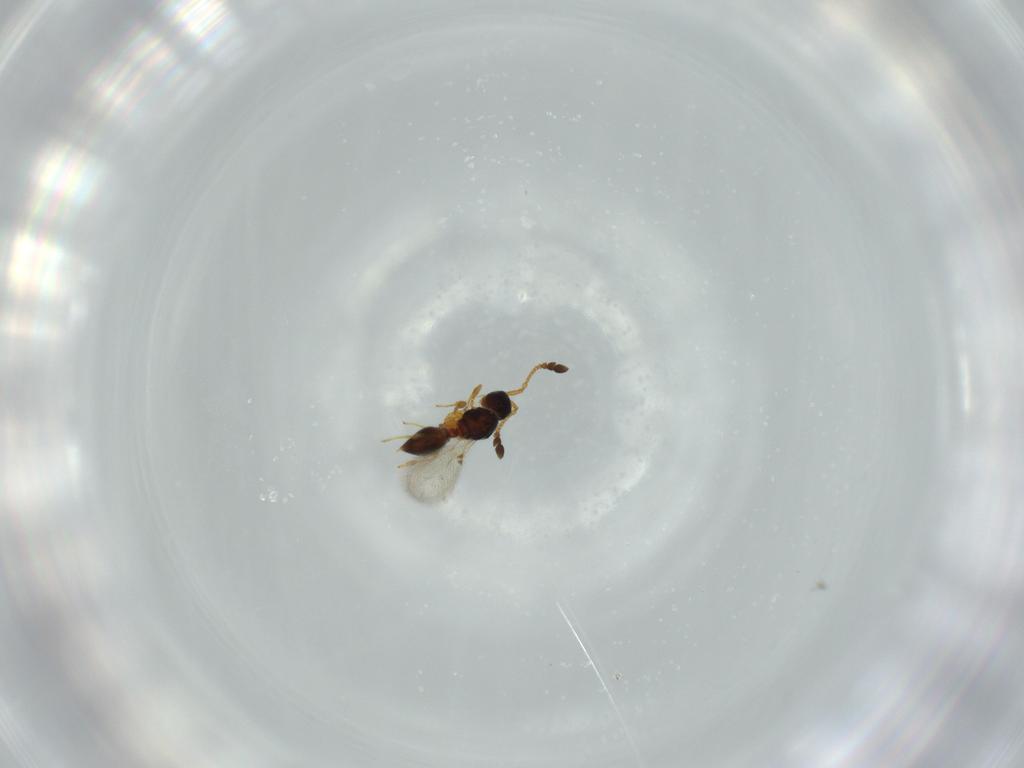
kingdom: Animalia
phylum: Arthropoda
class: Insecta
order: Hymenoptera
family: Diapriidae
